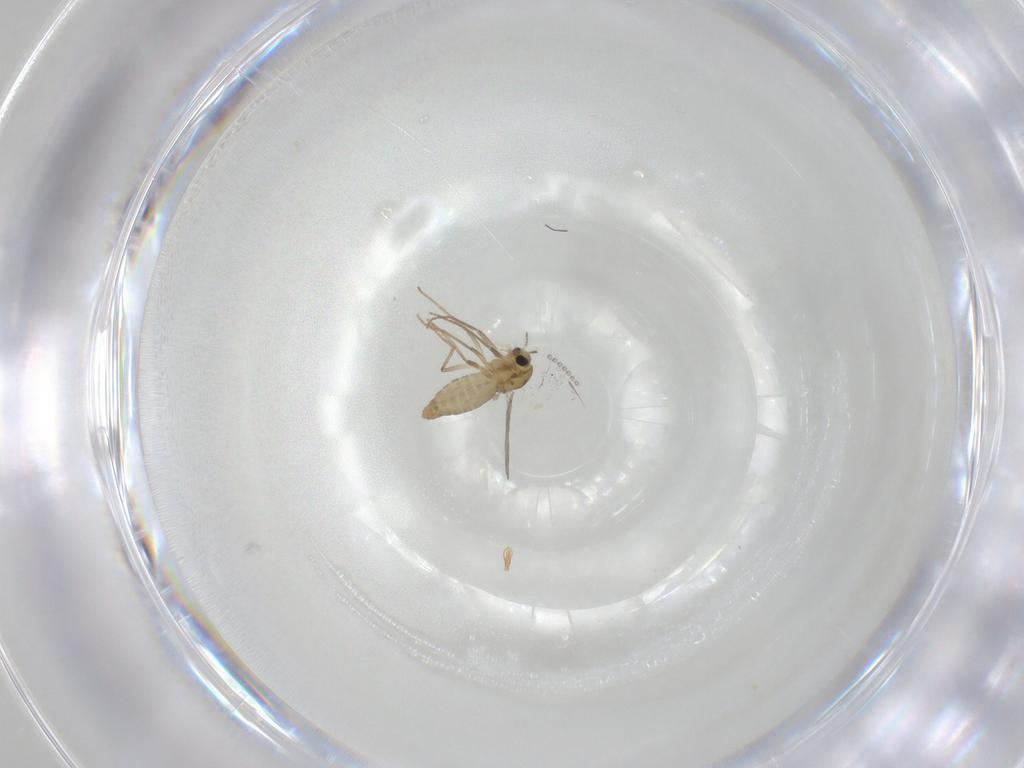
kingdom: Animalia
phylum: Arthropoda
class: Insecta
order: Diptera
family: Chironomidae
